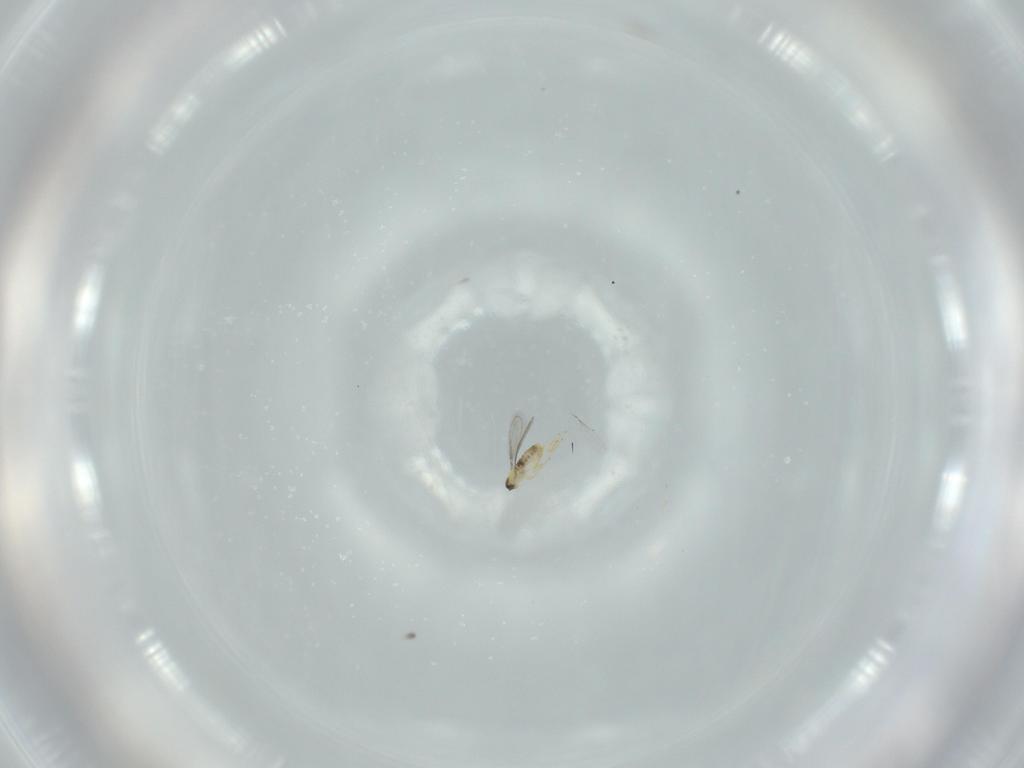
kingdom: Animalia
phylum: Arthropoda
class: Insecta
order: Hymenoptera
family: Aphelinidae
